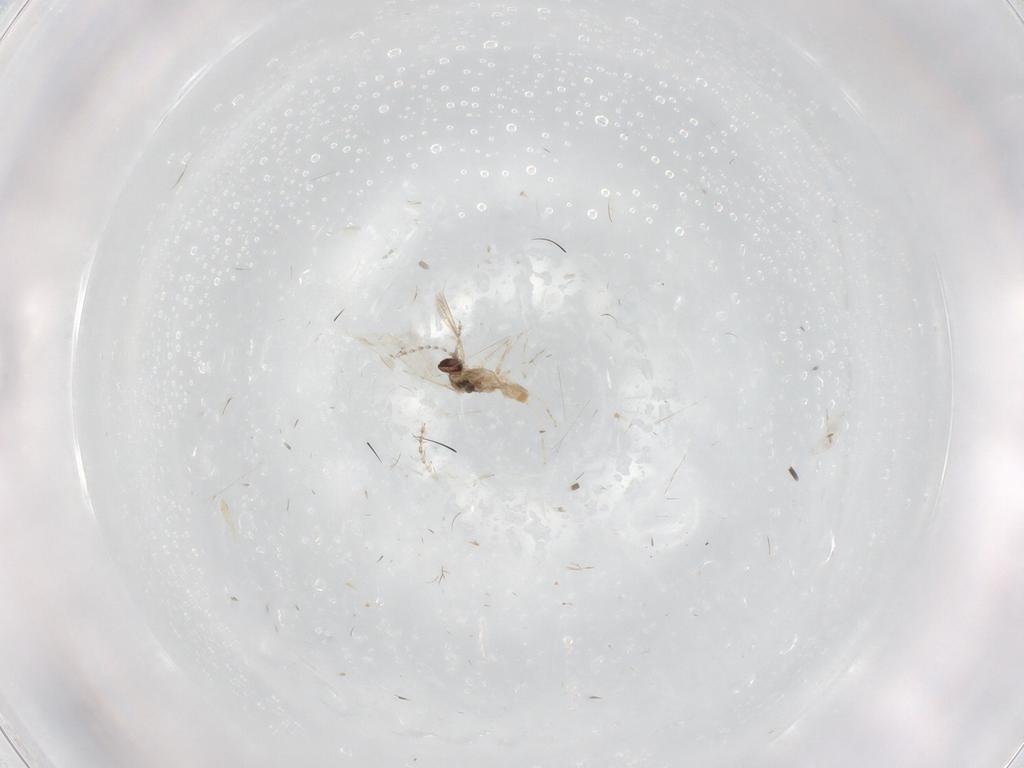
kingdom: Animalia
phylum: Arthropoda
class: Insecta
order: Diptera
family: Cecidomyiidae
